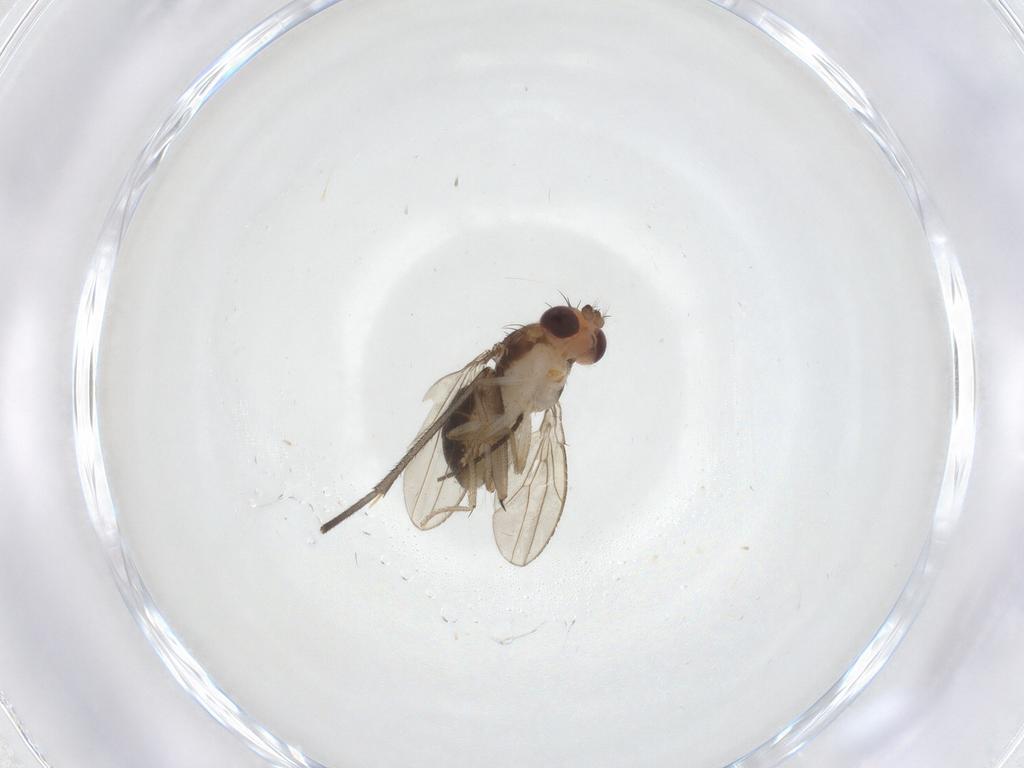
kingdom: Animalia
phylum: Arthropoda
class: Insecta
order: Diptera
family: Drosophilidae
